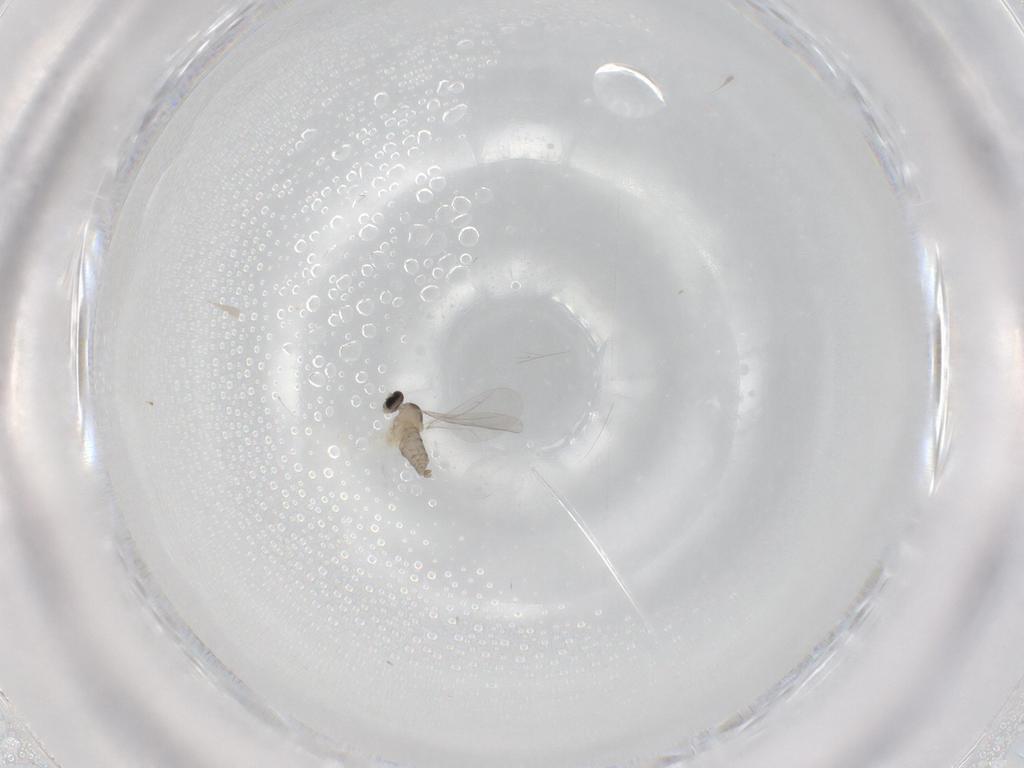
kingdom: Animalia
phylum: Arthropoda
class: Insecta
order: Diptera
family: Cecidomyiidae
